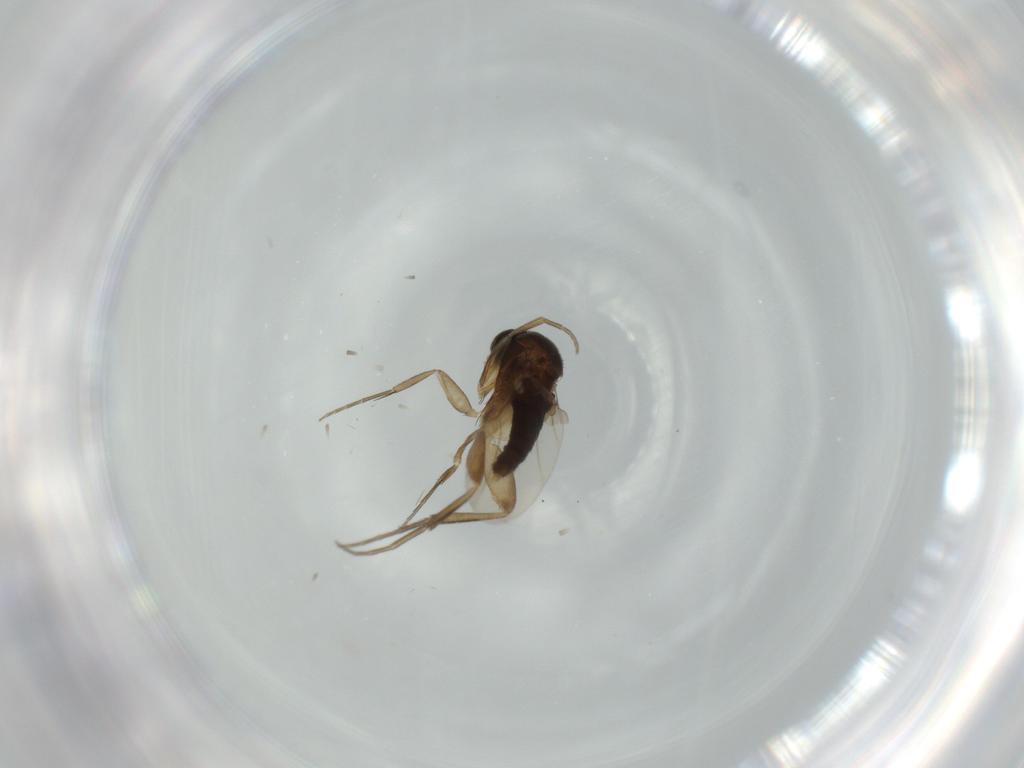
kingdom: Animalia
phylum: Arthropoda
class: Insecta
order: Diptera
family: Phoridae
